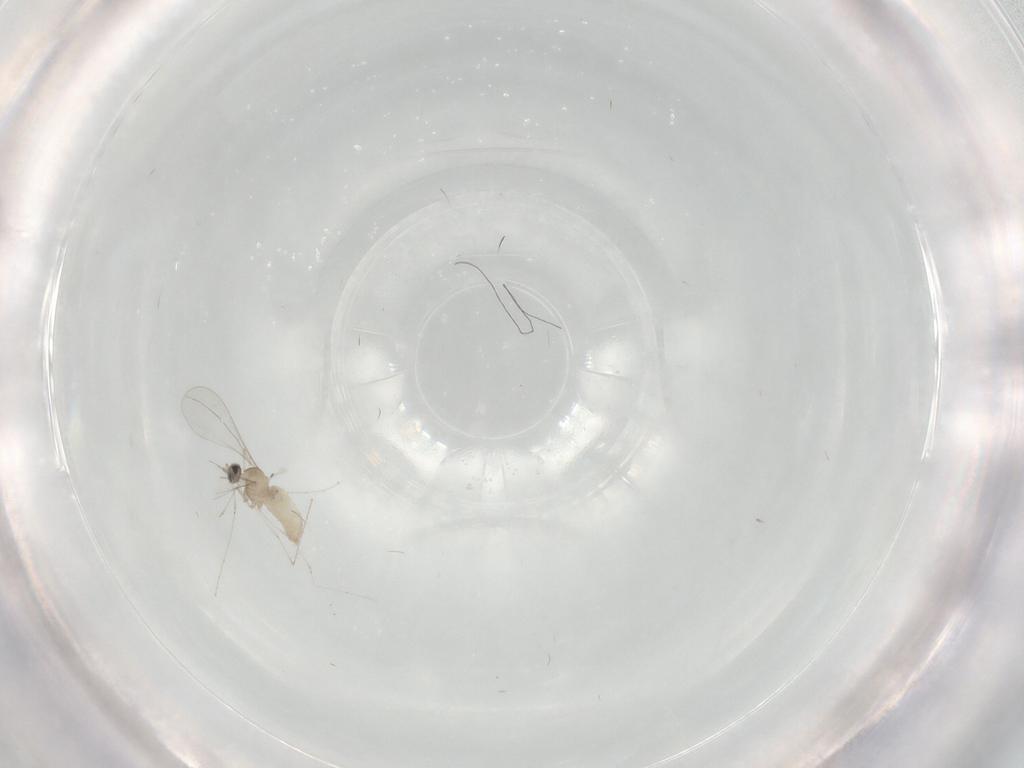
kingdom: Animalia
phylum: Arthropoda
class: Insecta
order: Diptera
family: Cecidomyiidae
